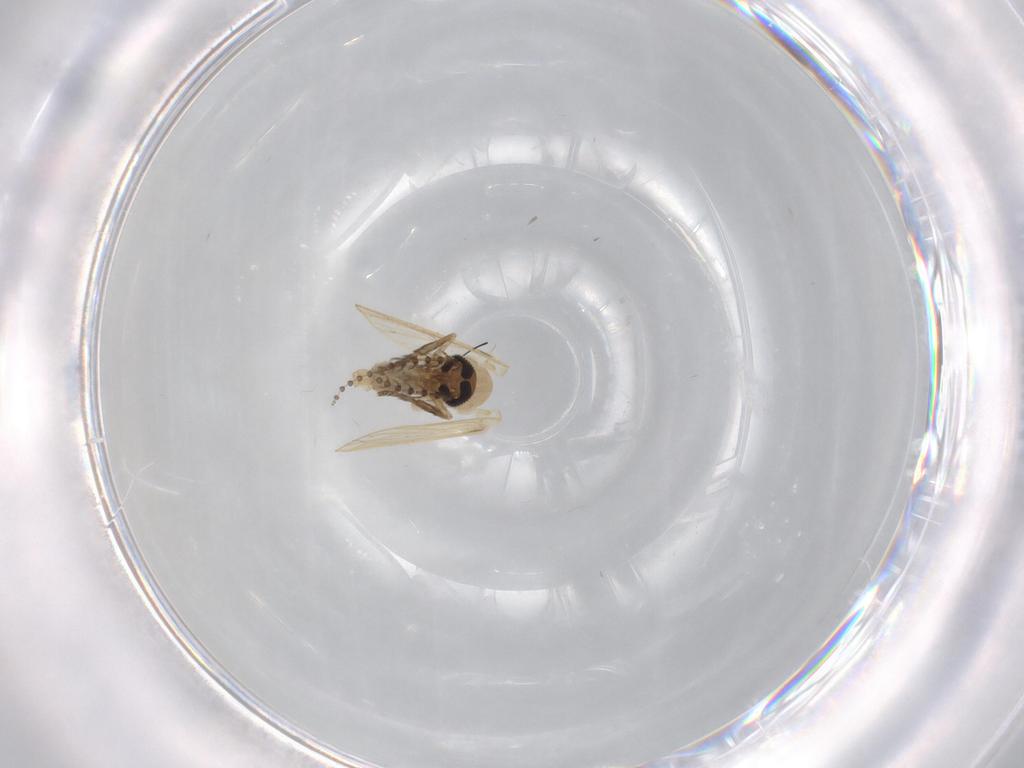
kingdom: Animalia
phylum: Arthropoda
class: Insecta
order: Diptera
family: Psychodidae
